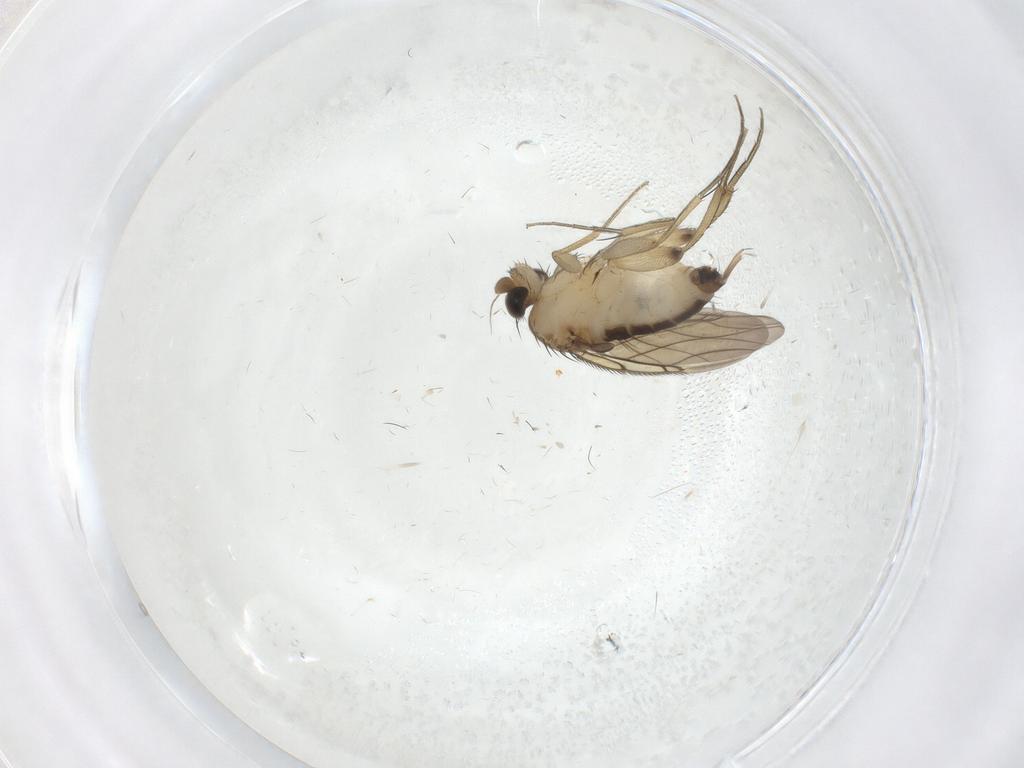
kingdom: Animalia
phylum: Arthropoda
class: Insecta
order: Diptera
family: Phoridae
